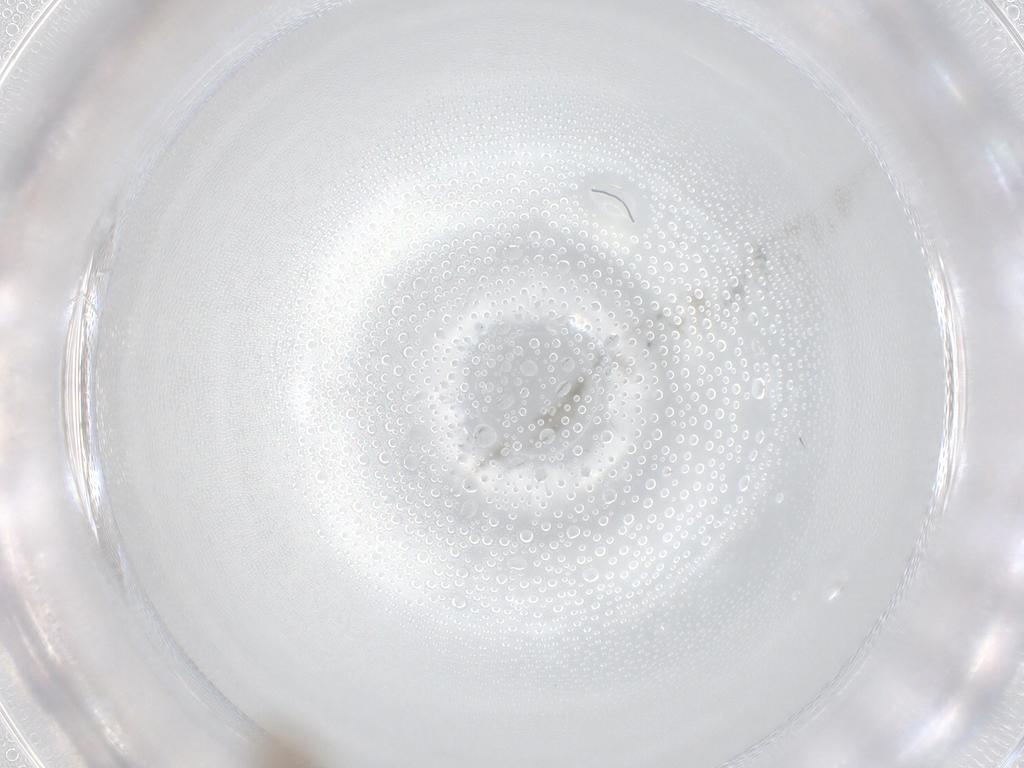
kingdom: Animalia
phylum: Arthropoda
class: Insecta
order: Diptera
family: Cecidomyiidae
